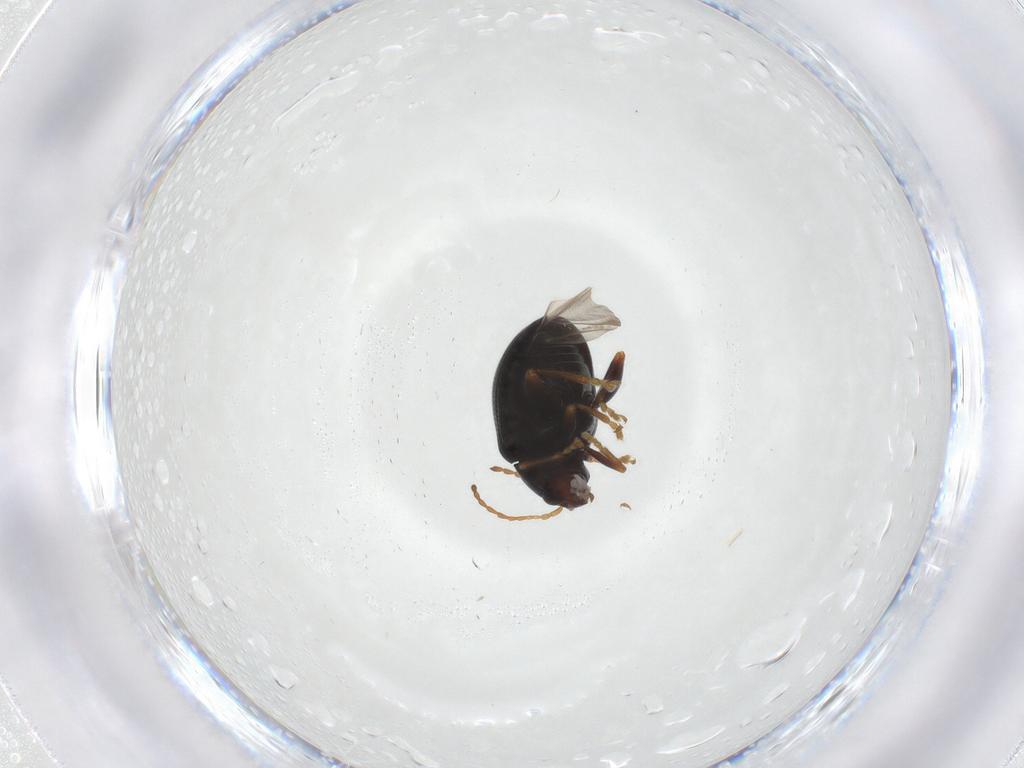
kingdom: Animalia
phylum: Arthropoda
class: Insecta
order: Coleoptera
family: Chrysomelidae
